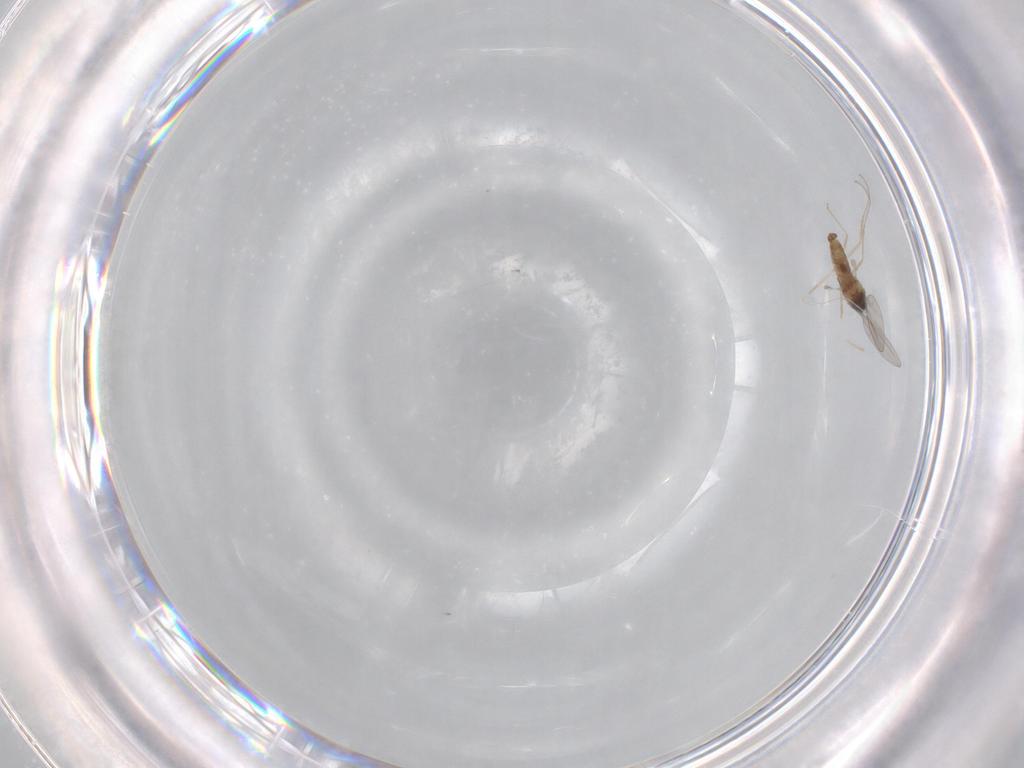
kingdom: Animalia
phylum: Arthropoda
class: Insecta
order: Diptera
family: Cecidomyiidae
